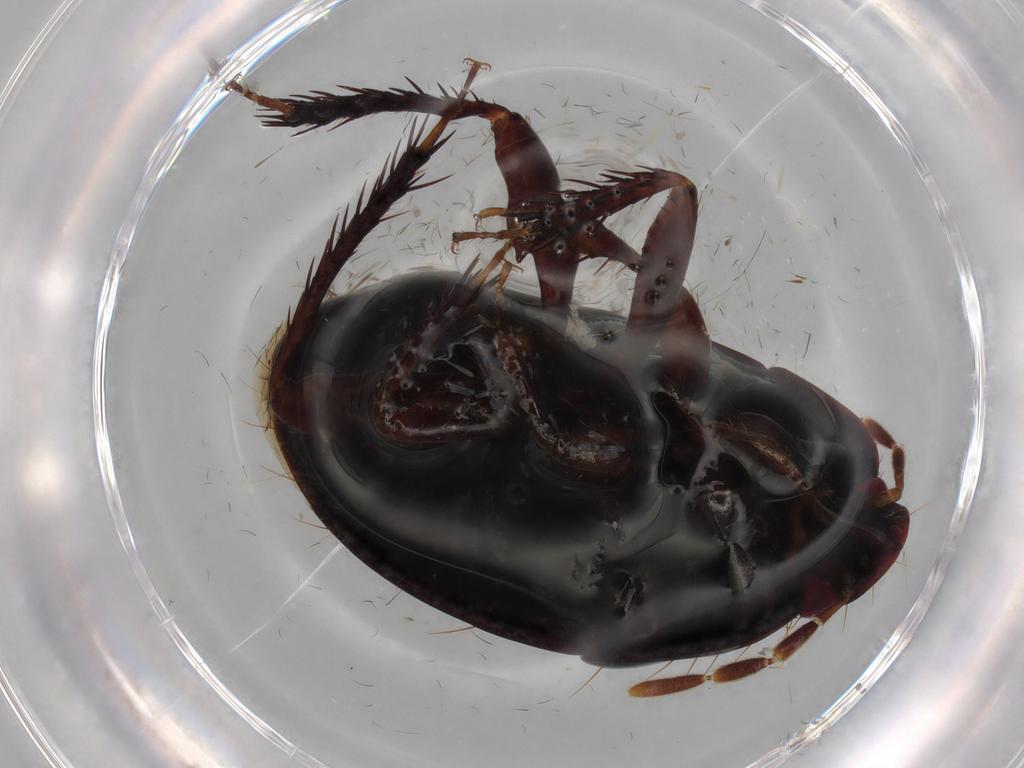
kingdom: Animalia
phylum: Arthropoda
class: Insecta
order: Hemiptera
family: Cydnidae
